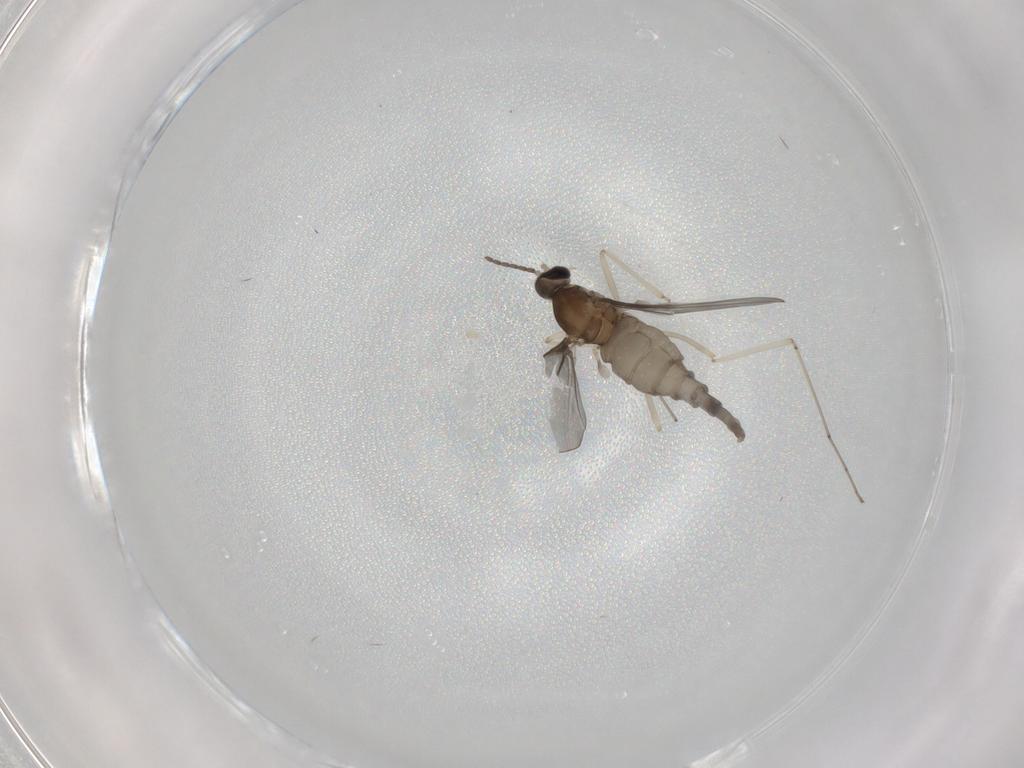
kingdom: Animalia
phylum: Arthropoda
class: Insecta
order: Diptera
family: Cecidomyiidae
